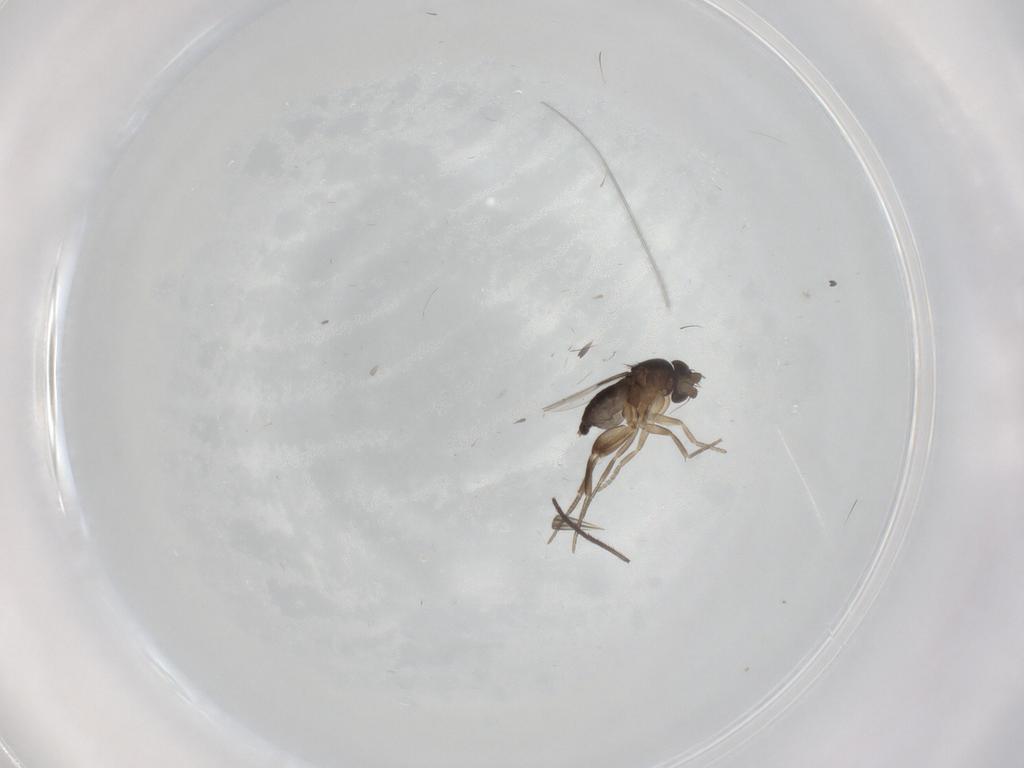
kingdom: Animalia
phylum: Arthropoda
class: Insecta
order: Diptera
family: Phoridae
